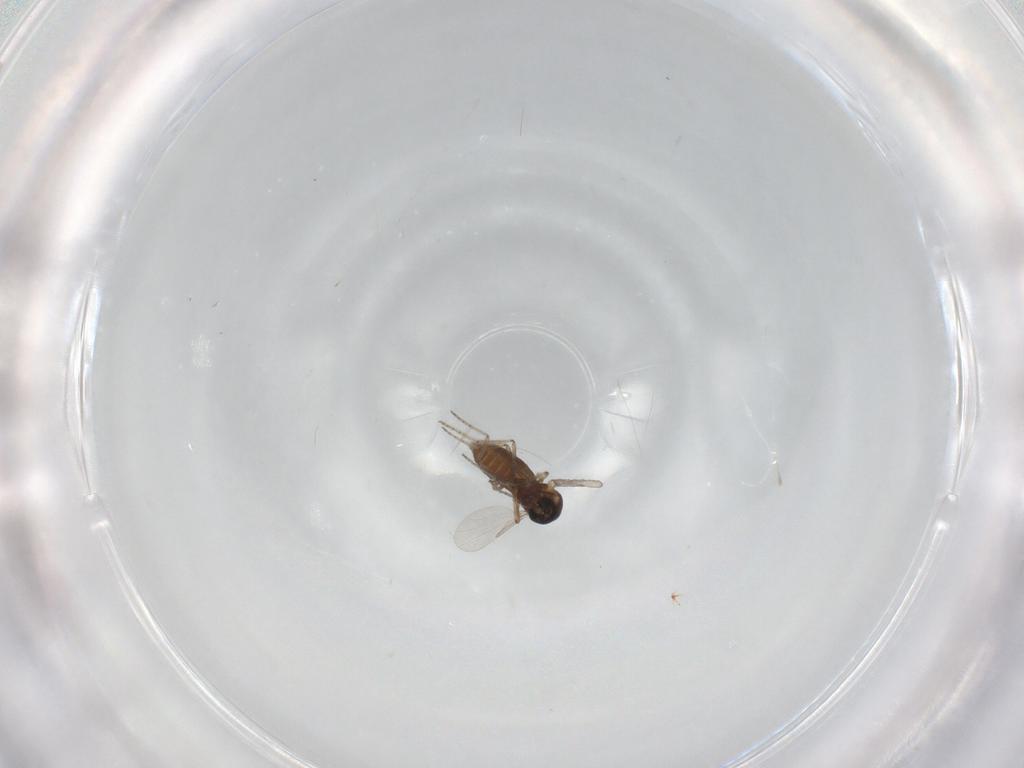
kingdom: Animalia
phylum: Arthropoda
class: Insecta
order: Diptera
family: Ceratopogonidae
